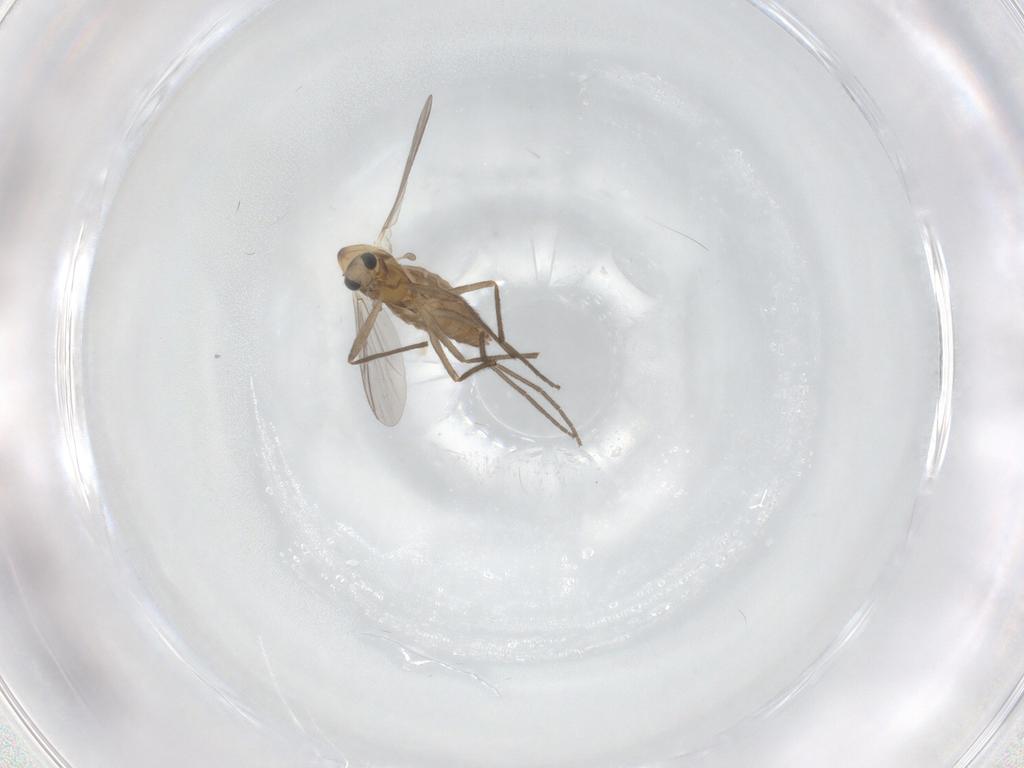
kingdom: Animalia
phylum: Arthropoda
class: Insecta
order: Diptera
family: Chironomidae
